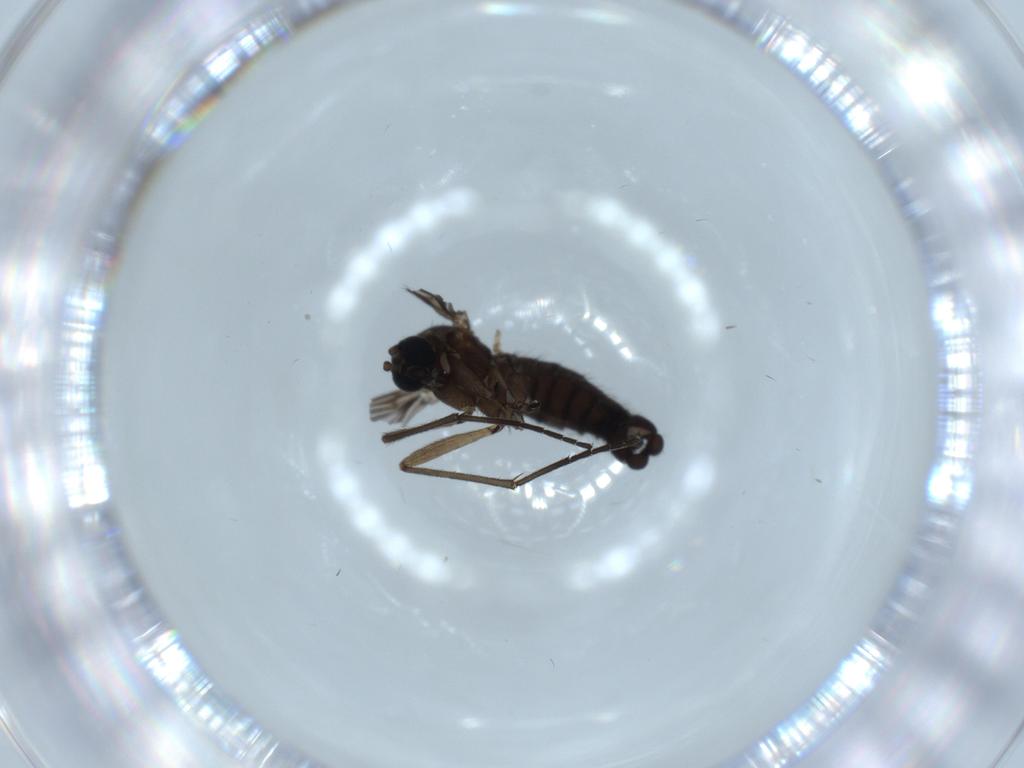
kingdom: Animalia
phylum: Arthropoda
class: Insecta
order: Diptera
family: Sciaridae
